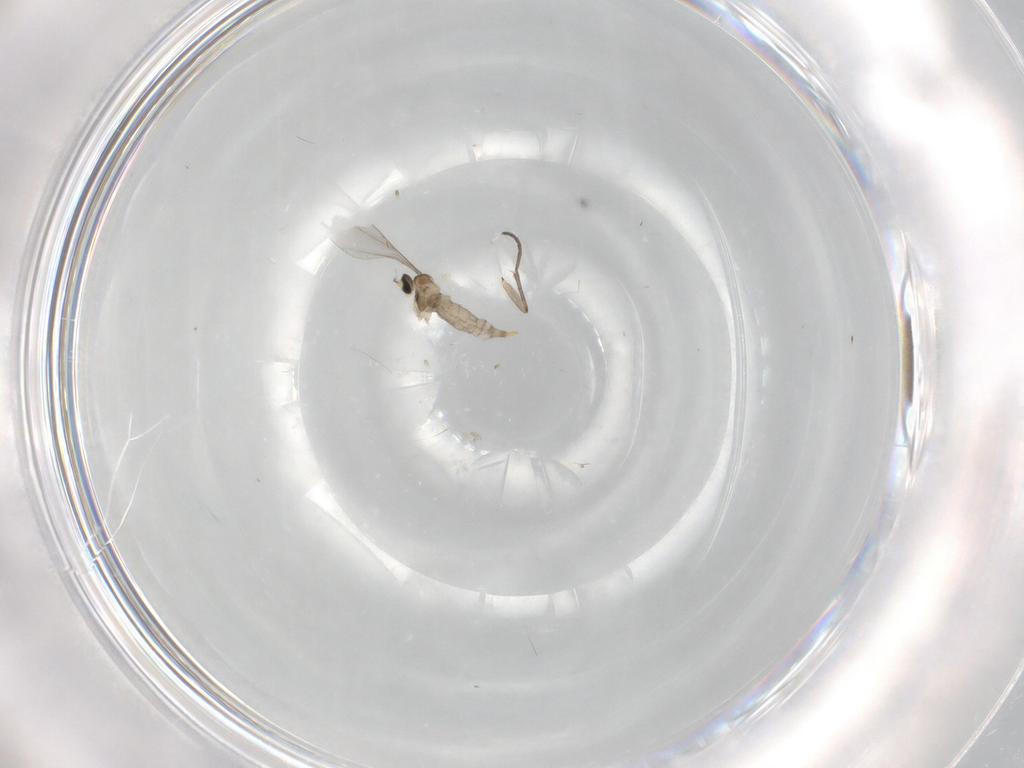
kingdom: Animalia
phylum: Arthropoda
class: Insecta
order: Diptera
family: Cecidomyiidae
